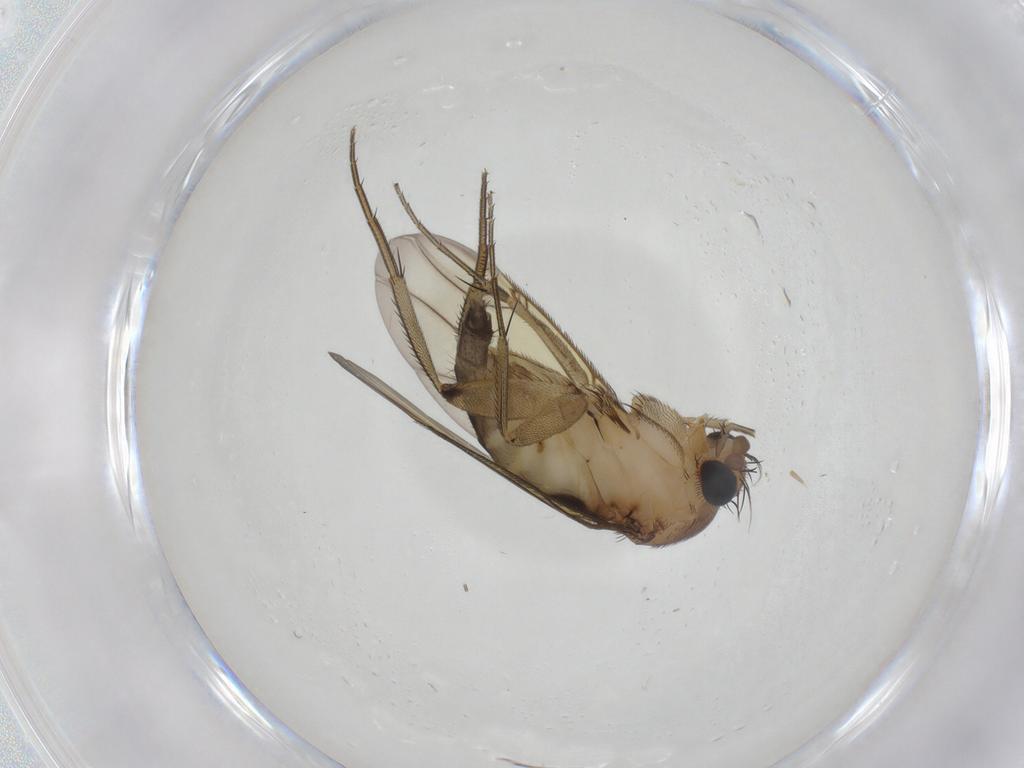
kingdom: Animalia
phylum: Arthropoda
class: Insecta
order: Diptera
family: Phoridae
